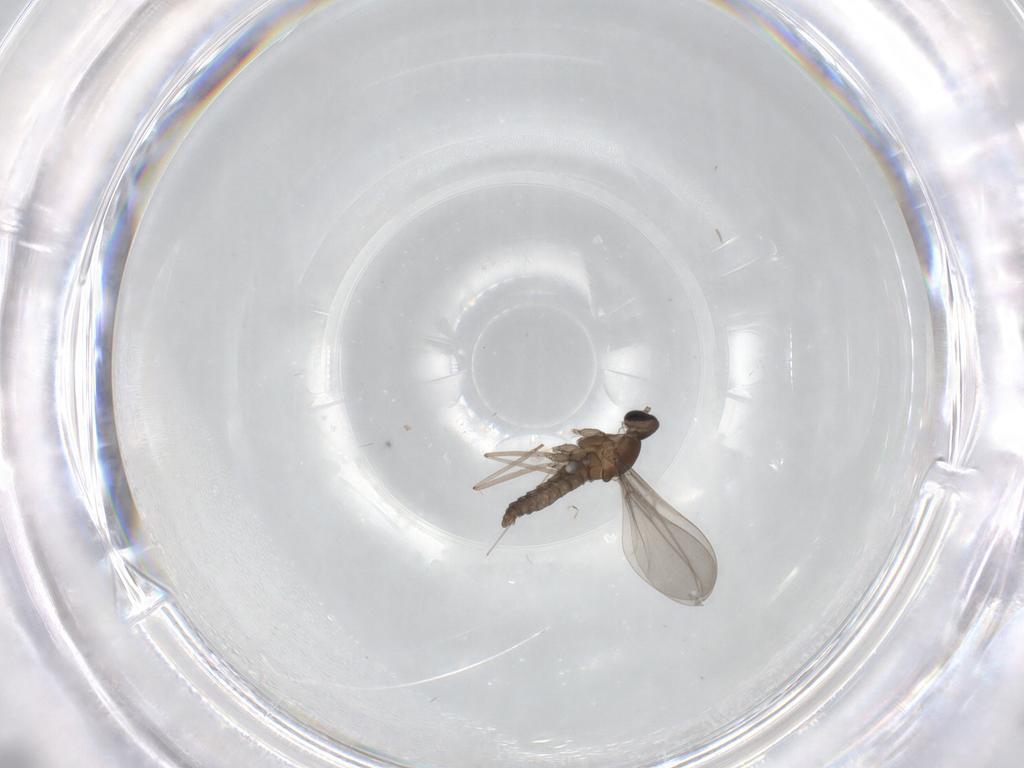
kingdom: Animalia
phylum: Arthropoda
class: Insecta
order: Diptera
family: Cecidomyiidae
